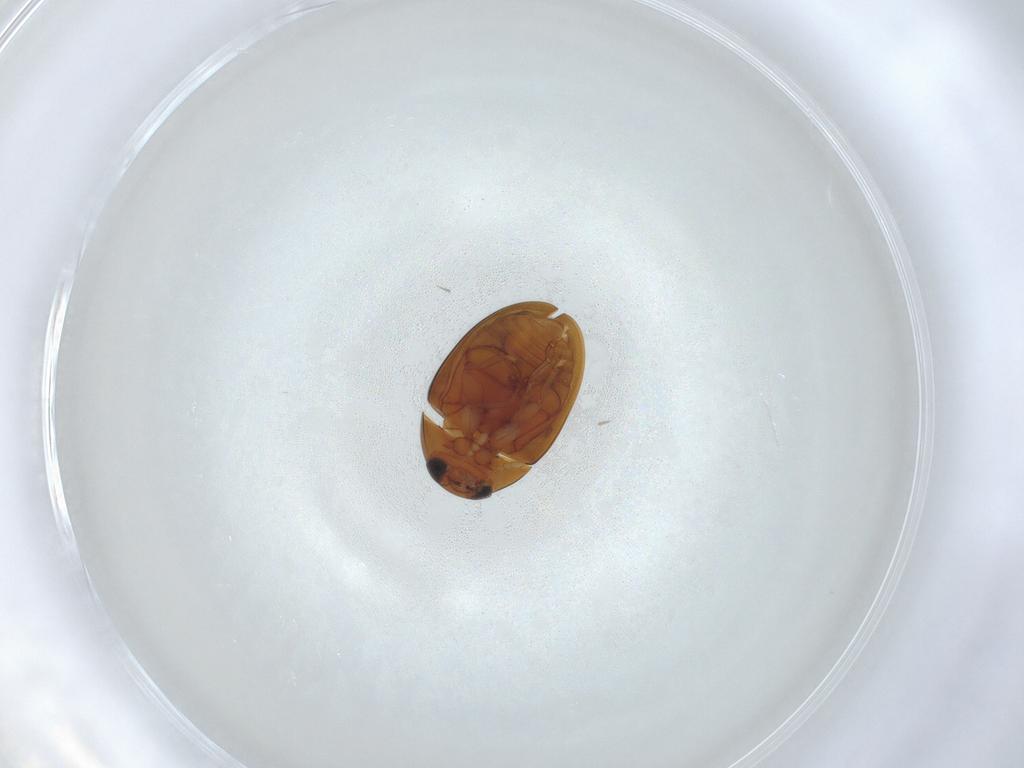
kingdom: Animalia
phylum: Arthropoda
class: Insecta
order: Coleoptera
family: Phalacridae
